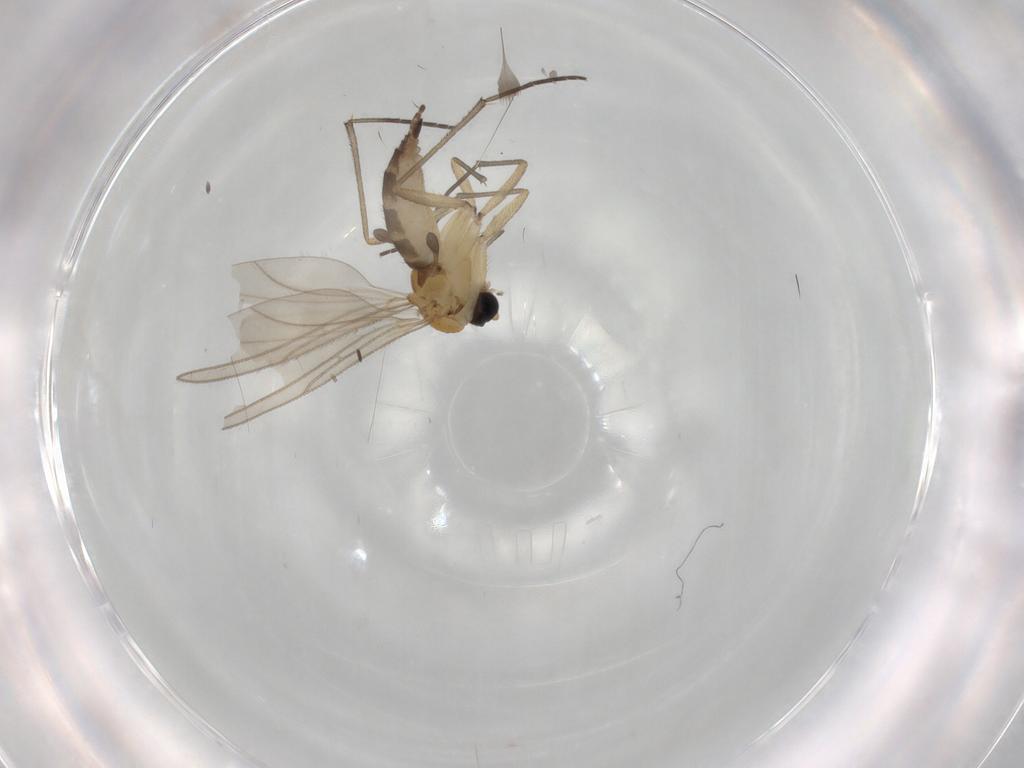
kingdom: Animalia
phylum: Arthropoda
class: Insecta
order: Diptera
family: Sciaridae
